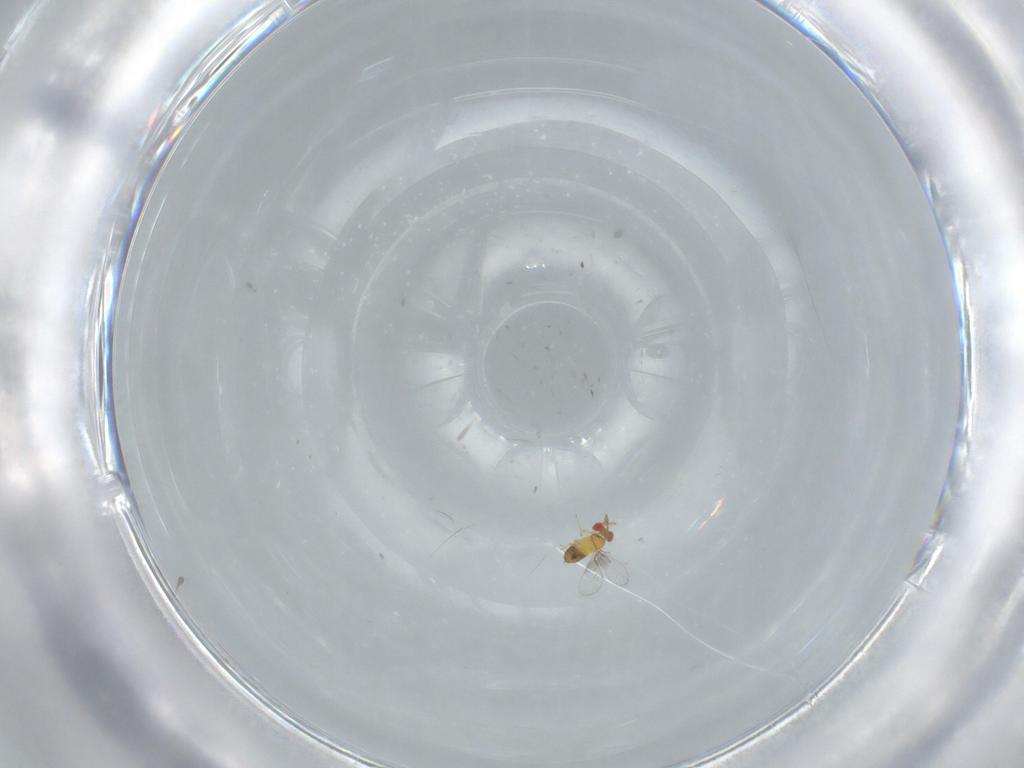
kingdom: Animalia
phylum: Arthropoda
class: Insecta
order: Hymenoptera
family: Trichogrammatidae
